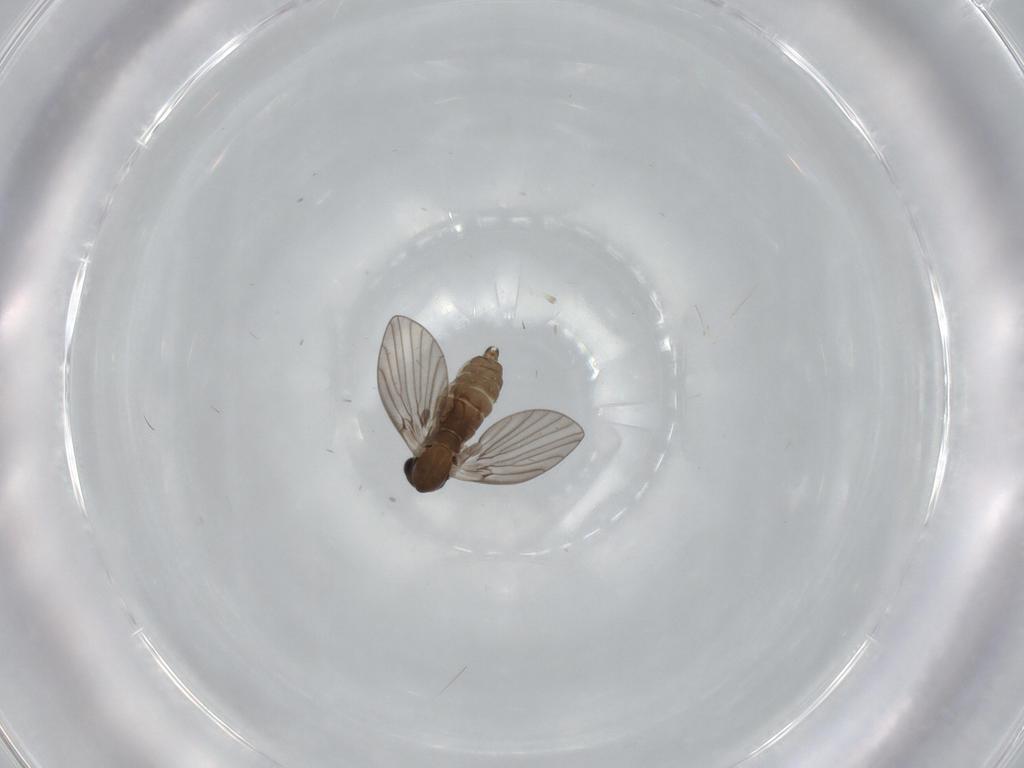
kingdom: Animalia
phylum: Arthropoda
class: Insecta
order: Diptera
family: Psychodidae
